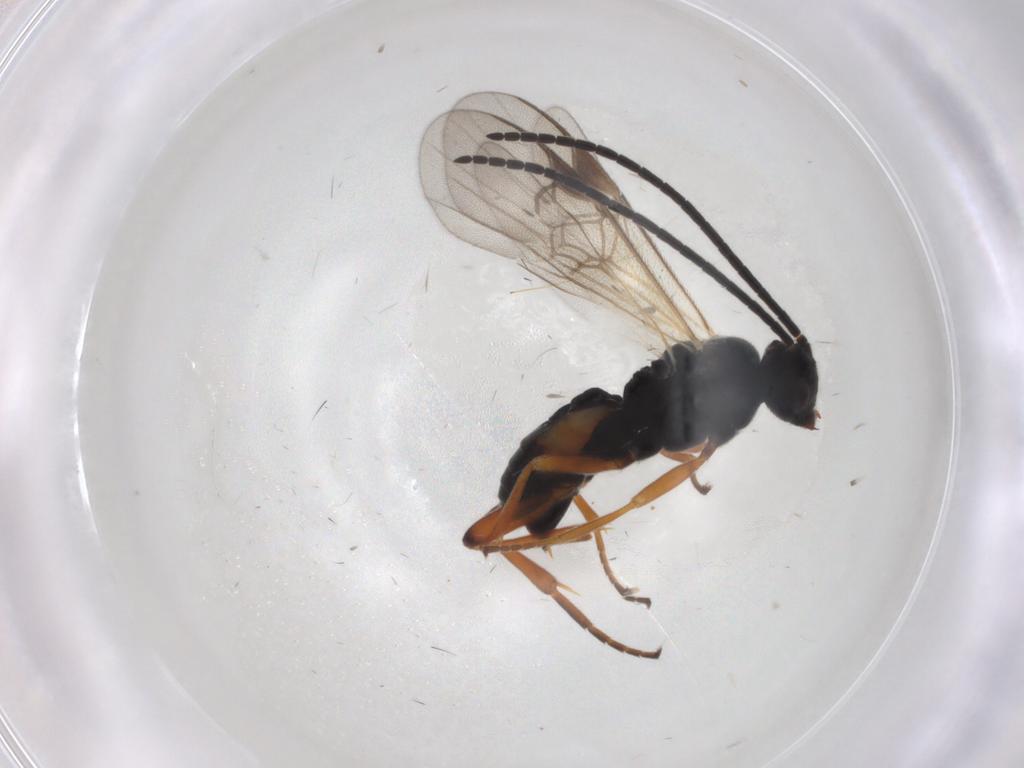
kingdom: Animalia
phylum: Arthropoda
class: Insecta
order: Hymenoptera
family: Braconidae
